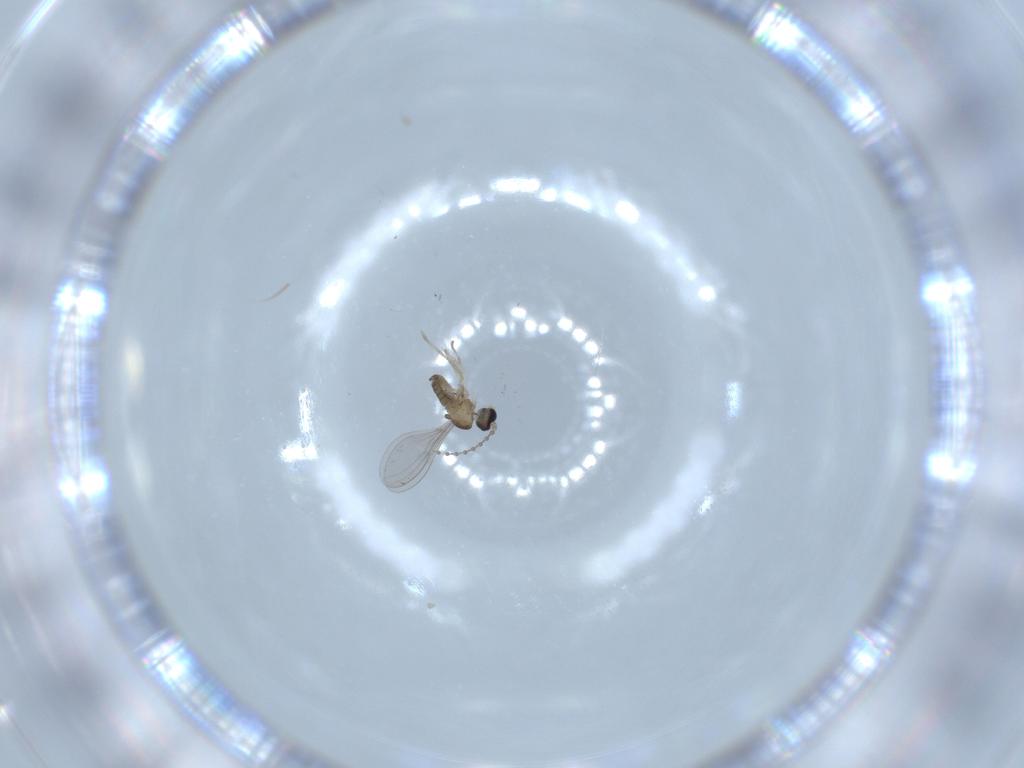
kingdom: Animalia
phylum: Arthropoda
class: Insecta
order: Diptera
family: Cecidomyiidae
